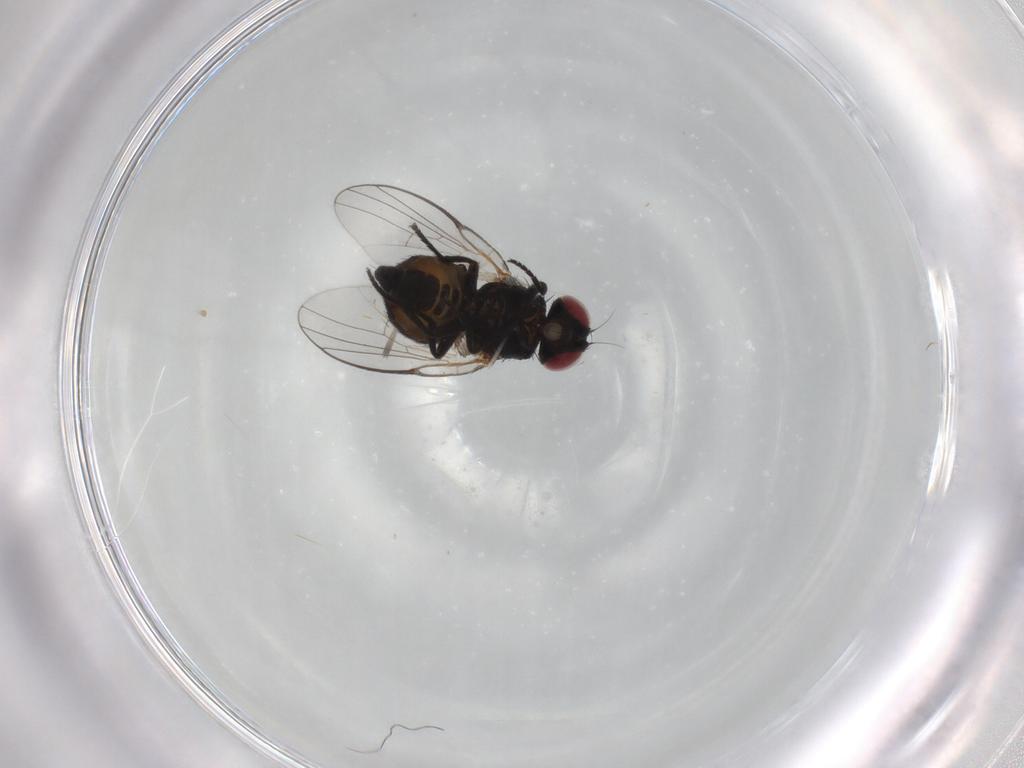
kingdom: Animalia
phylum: Arthropoda
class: Insecta
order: Diptera
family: Agromyzidae
